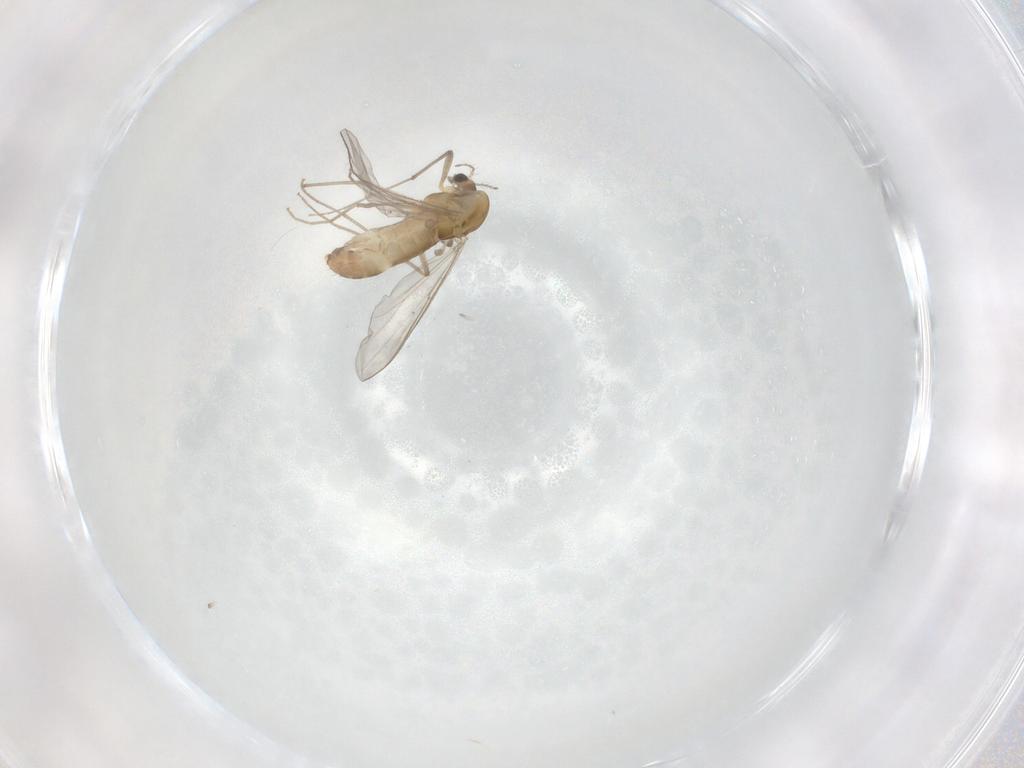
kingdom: Animalia
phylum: Arthropoda
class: Insecta
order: Diptera
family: Chironomidae
